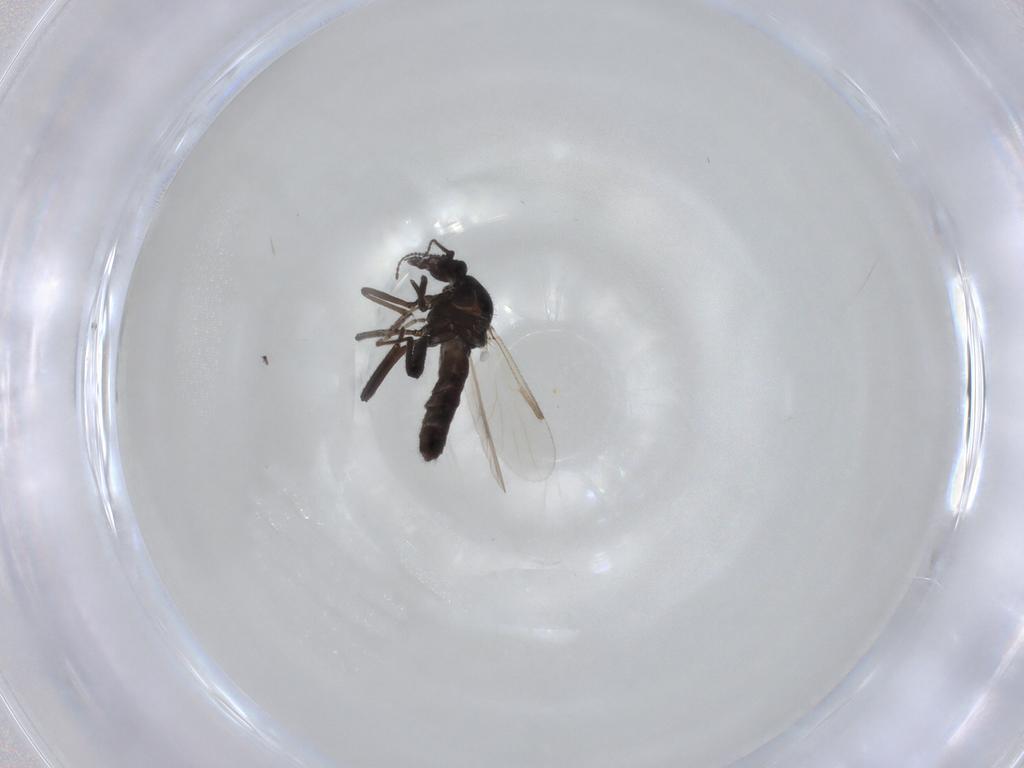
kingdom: Animalia
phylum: Arthropoda
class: Insecta
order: Diptera
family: Ceratopogonidae
